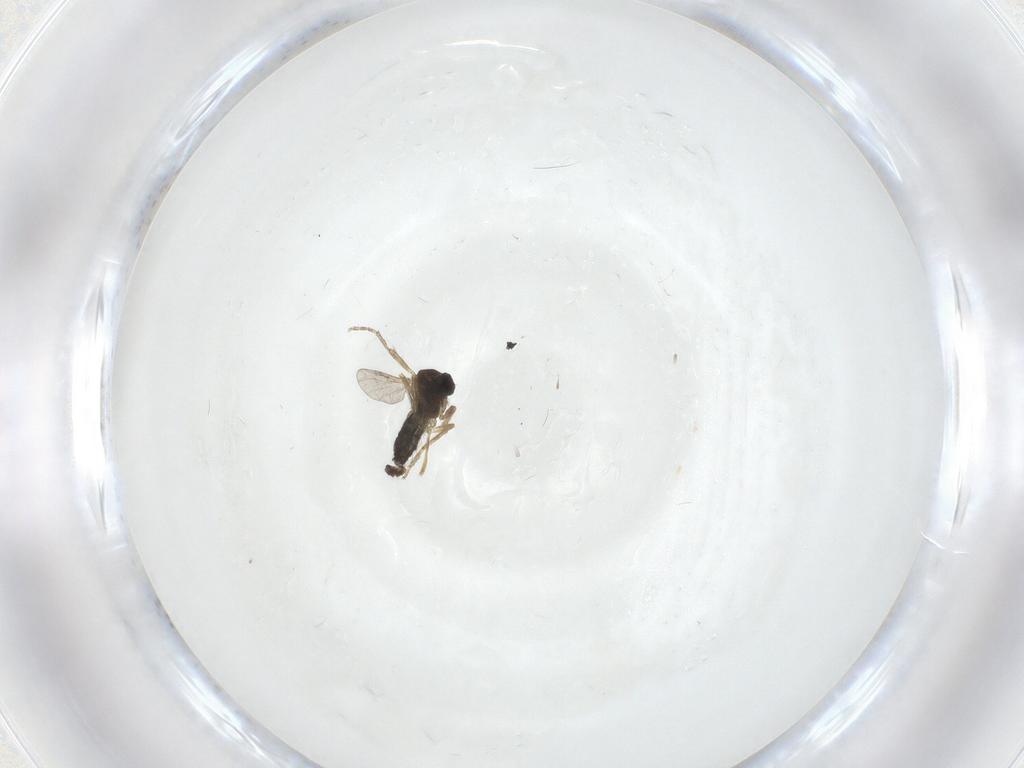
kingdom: Animalia
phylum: Arthropoda
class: Insecta
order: Diptera
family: Ceratopogonidae
